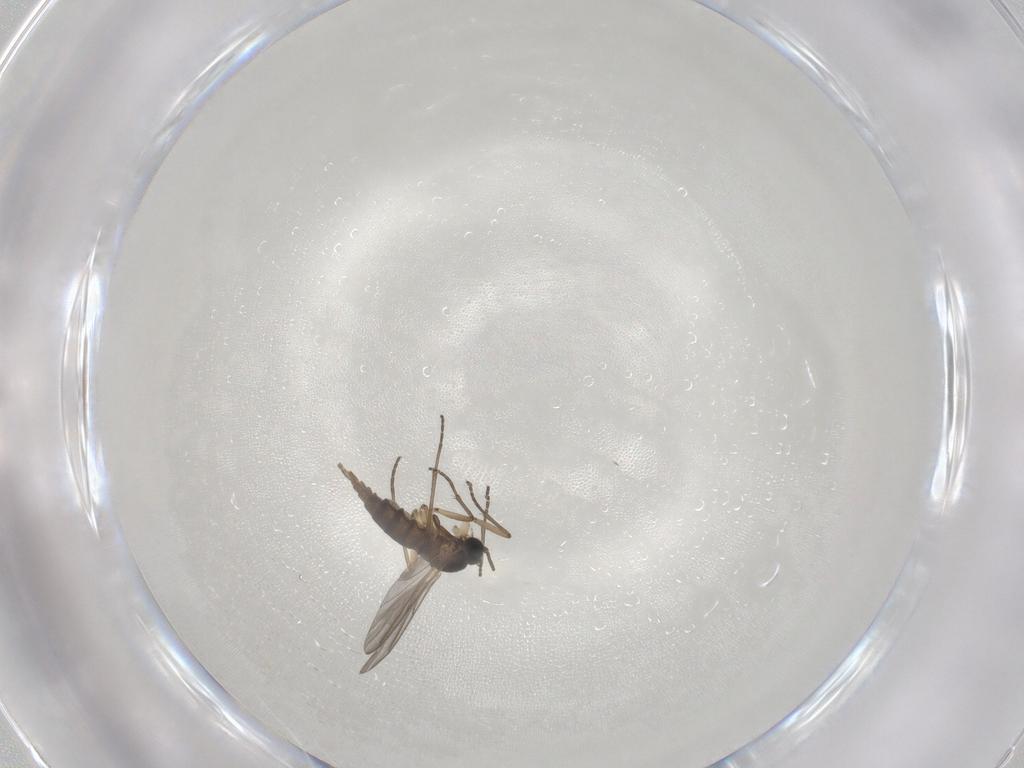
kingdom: Animalia
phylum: Arthropoda
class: Insecta
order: Diptera
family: Sciaridae
